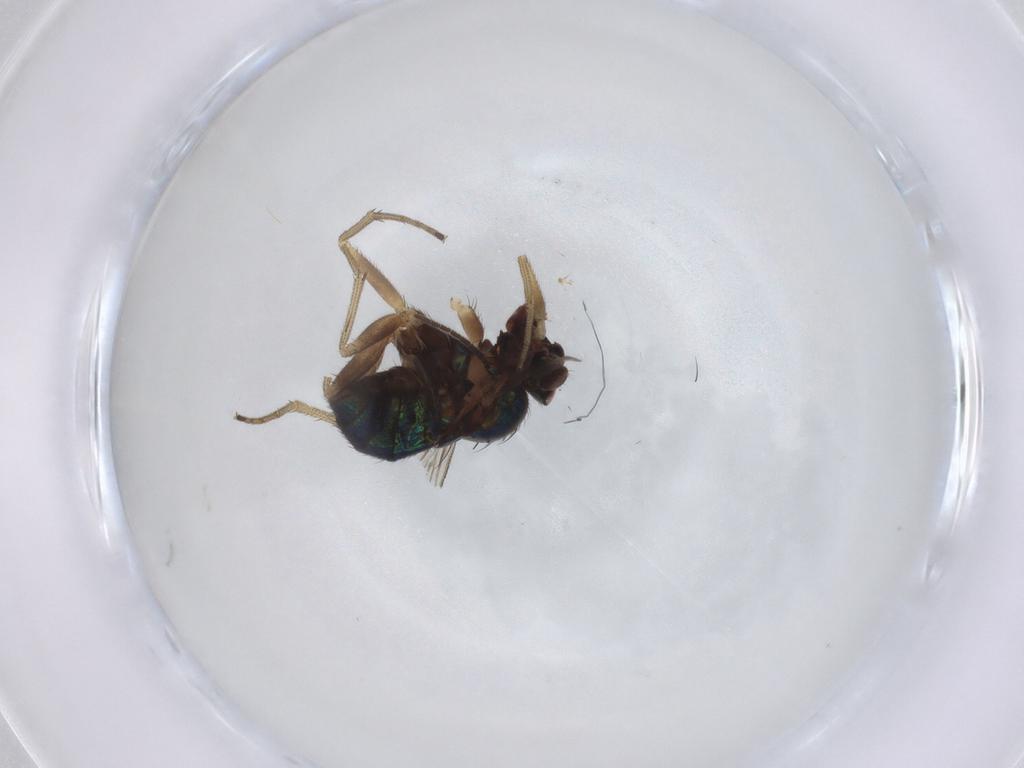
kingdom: Animalia
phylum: Arthropoda
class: Insecta
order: Diptera
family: Dolichopodidae
